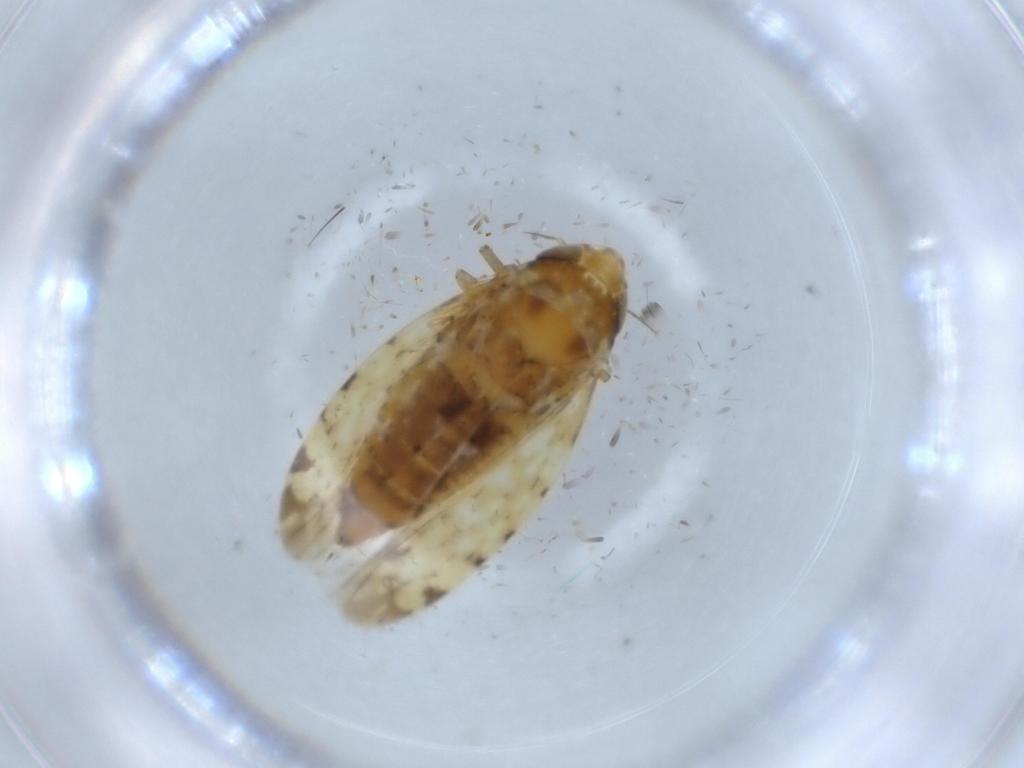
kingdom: Animalia
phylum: Arthropoda
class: Insecta
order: Hemiptera
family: Cicadellidae
